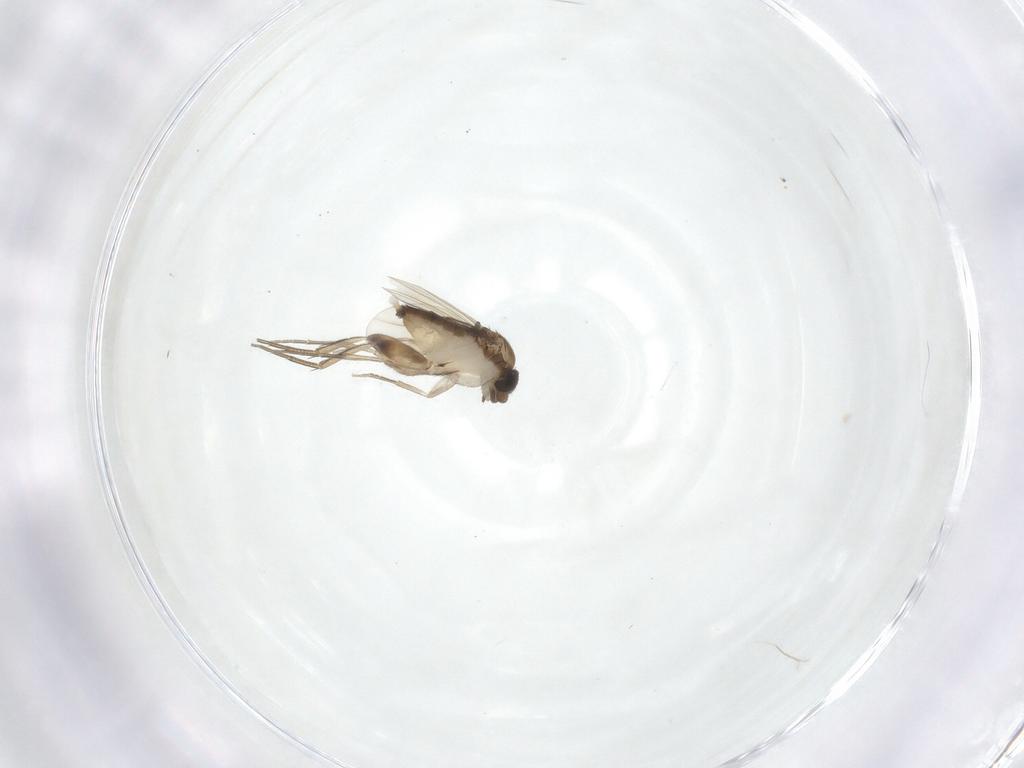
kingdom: Animalia
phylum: Arthropoda
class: Insecta
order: Diptera
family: Phoridae
